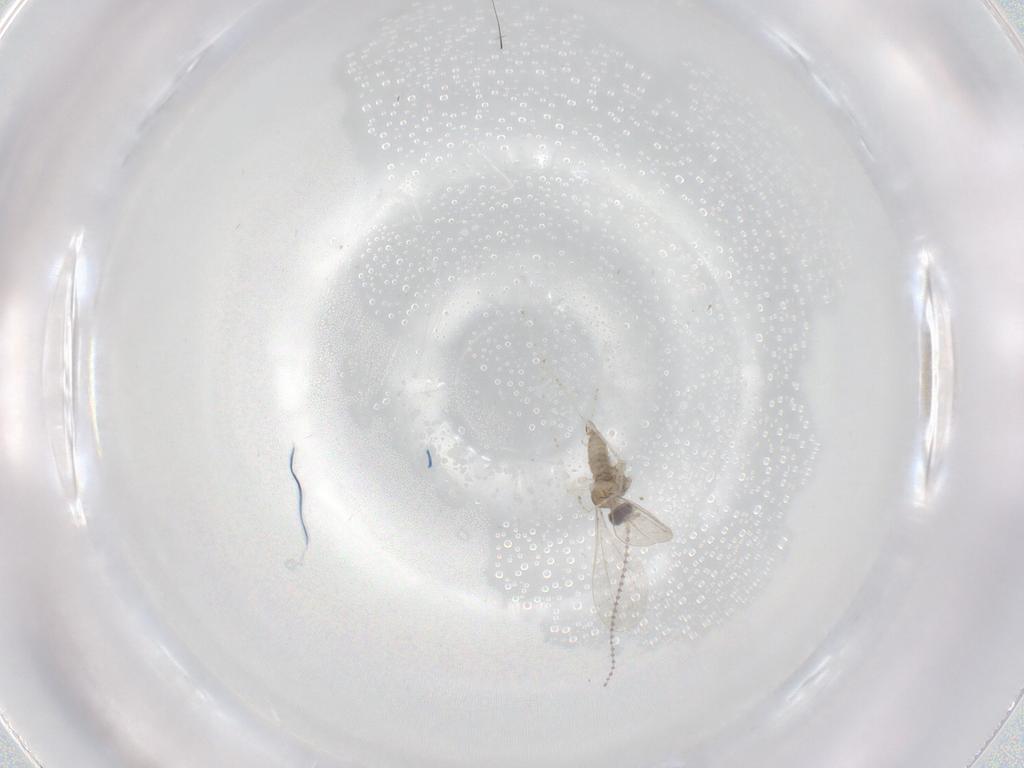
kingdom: Animalia
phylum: Arthropoda
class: Insecta
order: Diptera
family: Cecidomyiidae
